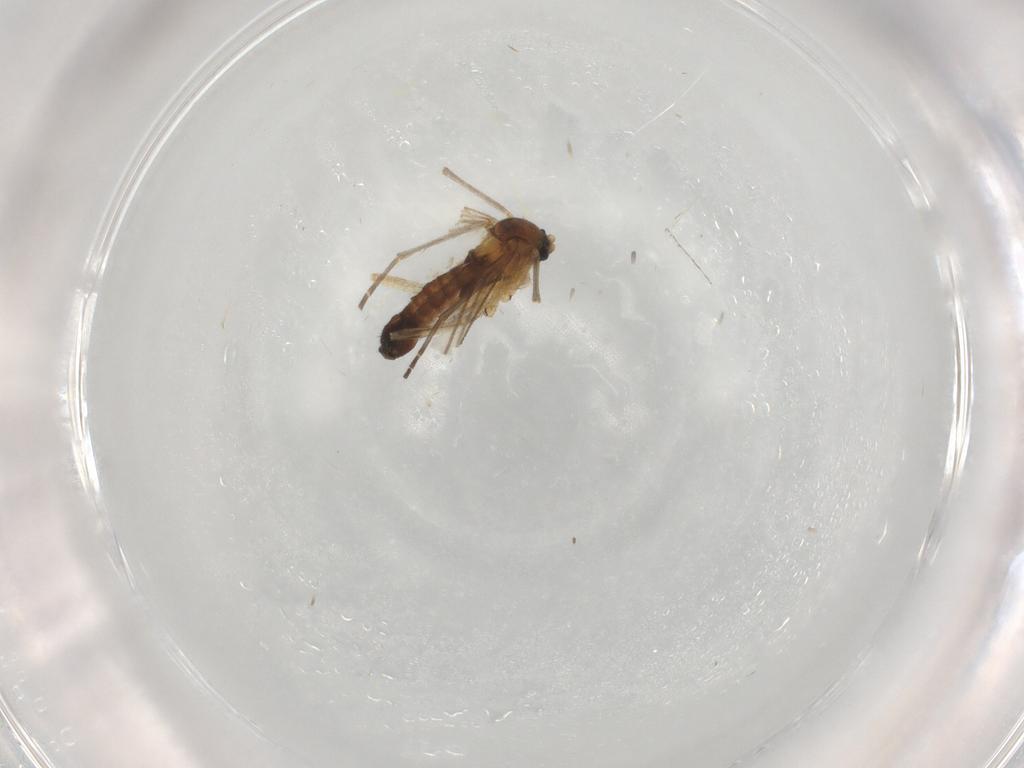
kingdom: Animalia
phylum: Arthropoda
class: Insecta
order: Diptera
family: Sciaridae
